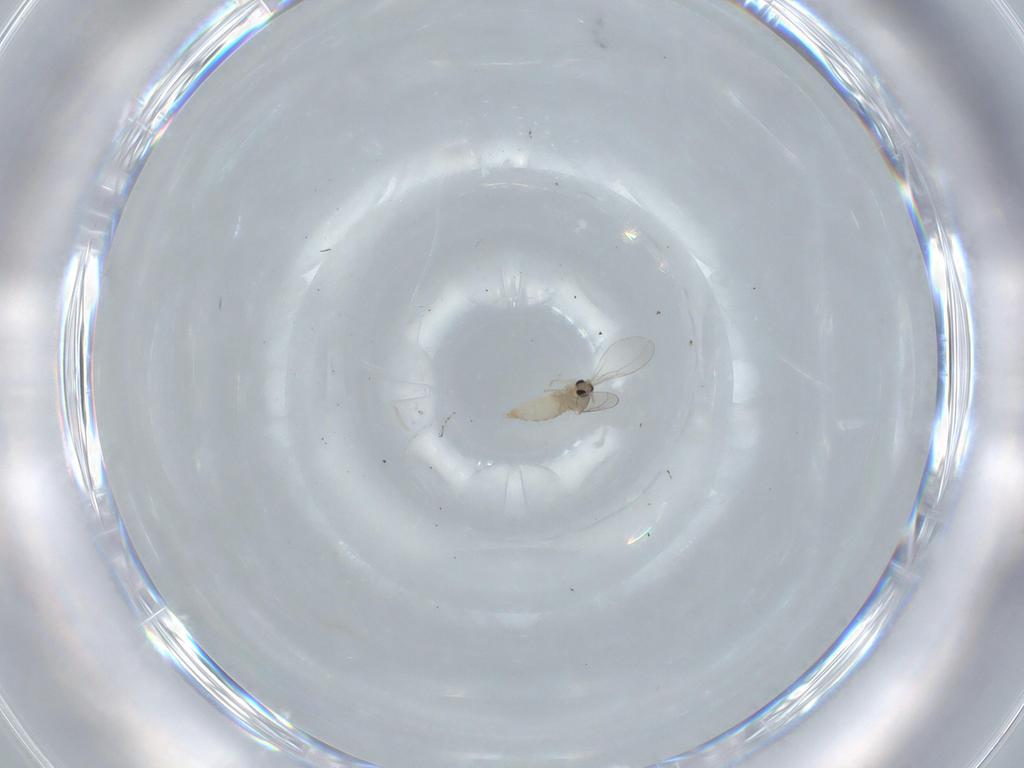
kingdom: Animalia
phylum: Arthropoda
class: Insecta
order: Diptera
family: Cecidomyiidae
